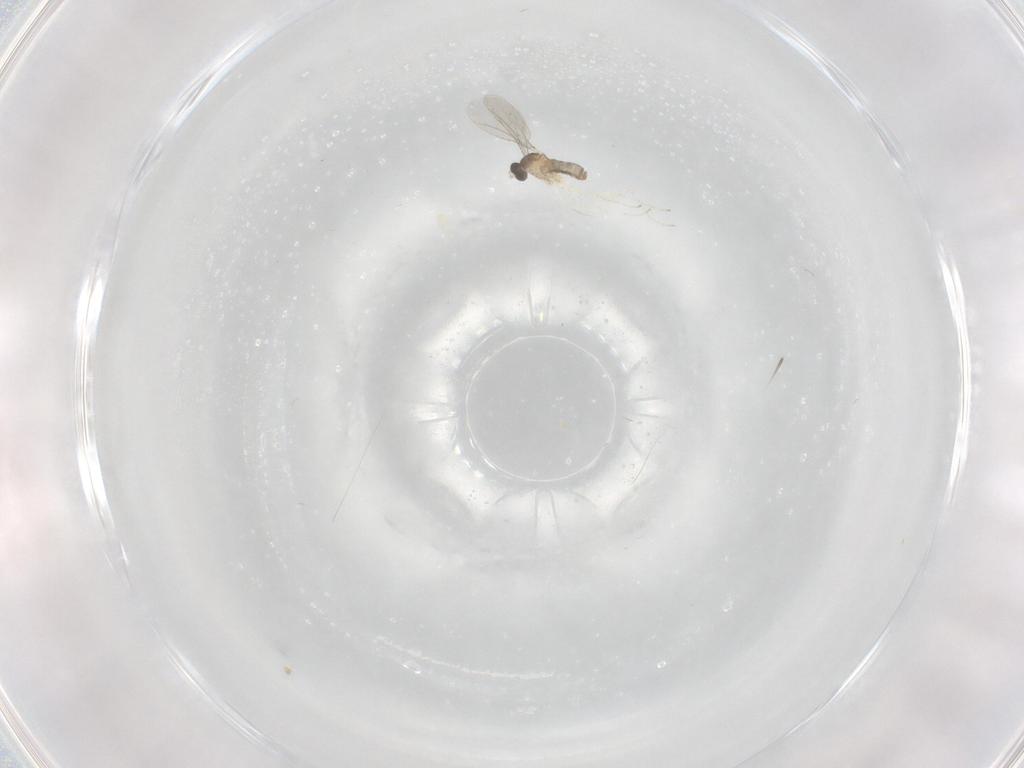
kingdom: Animalia
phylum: Arthropoda
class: Insecta
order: Diptera
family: Cecidomyiidae
